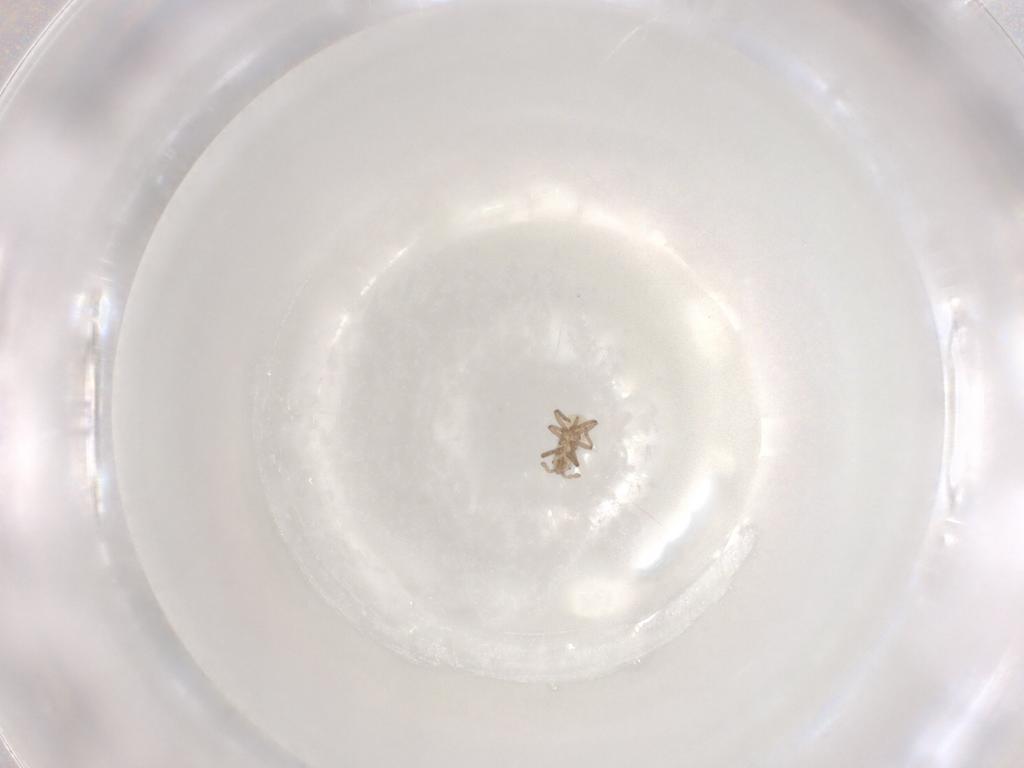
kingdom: Animalia
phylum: Arthropoda
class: Insecta
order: Hemiptera
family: Aphididae
